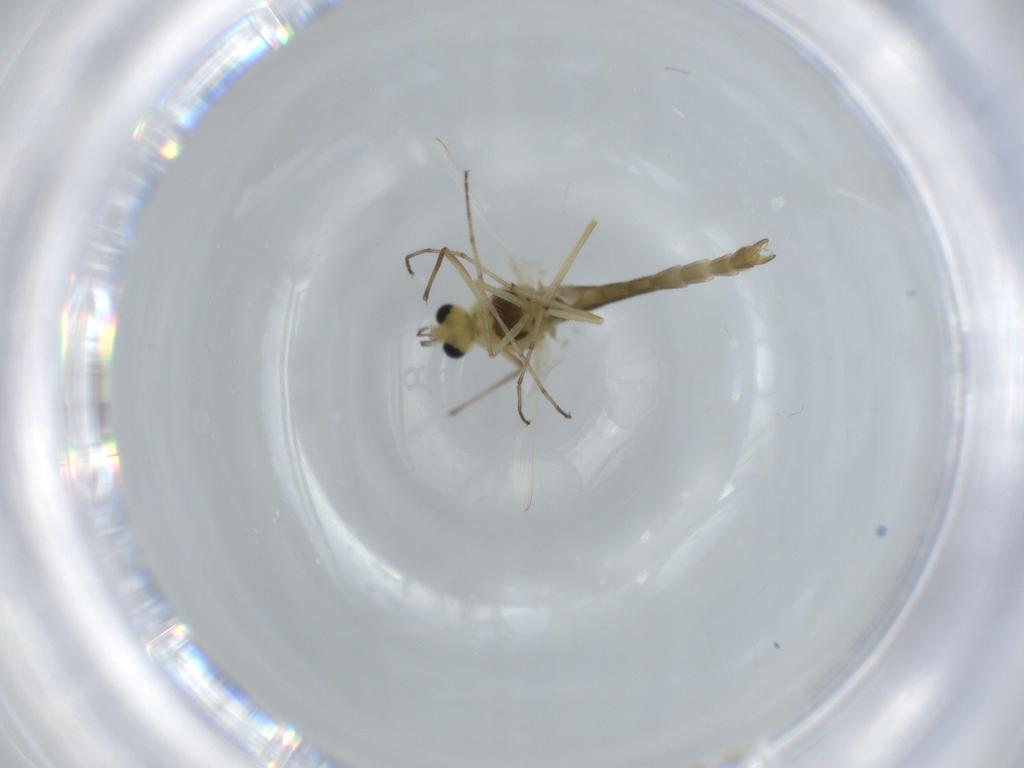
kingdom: Animalia
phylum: Arthropoda
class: Insecta
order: Diptera
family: Chironomidae
